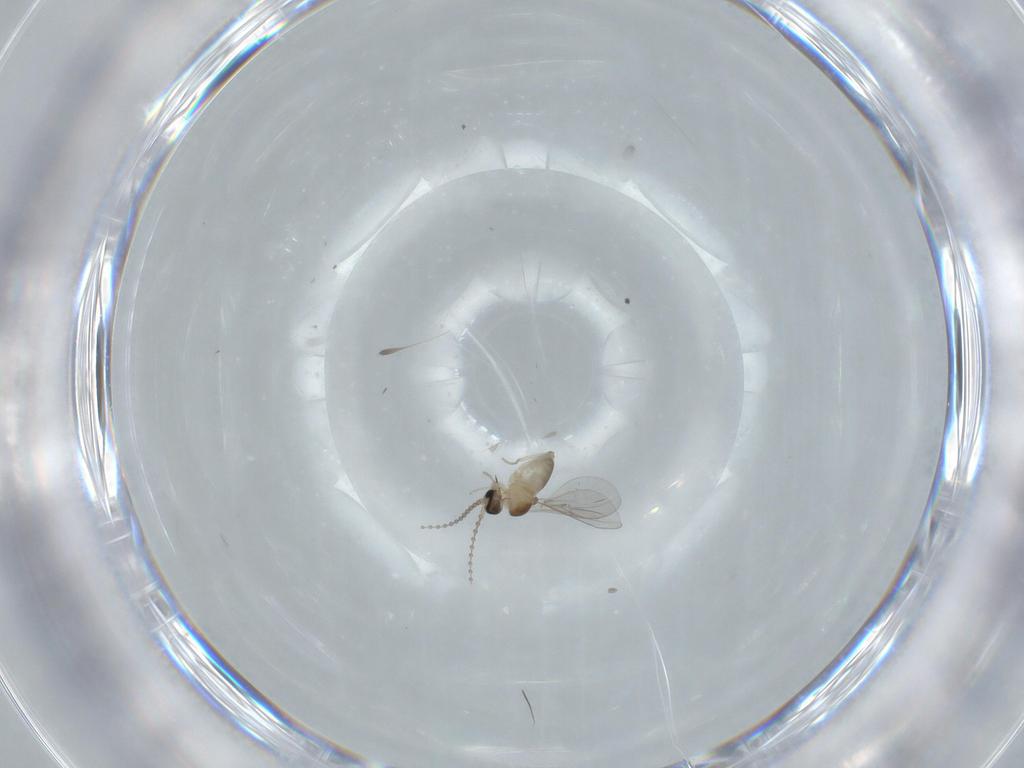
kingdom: Animalia
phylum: Arthropoda
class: Insecta
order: Diptera
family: Cecidomyiidae
